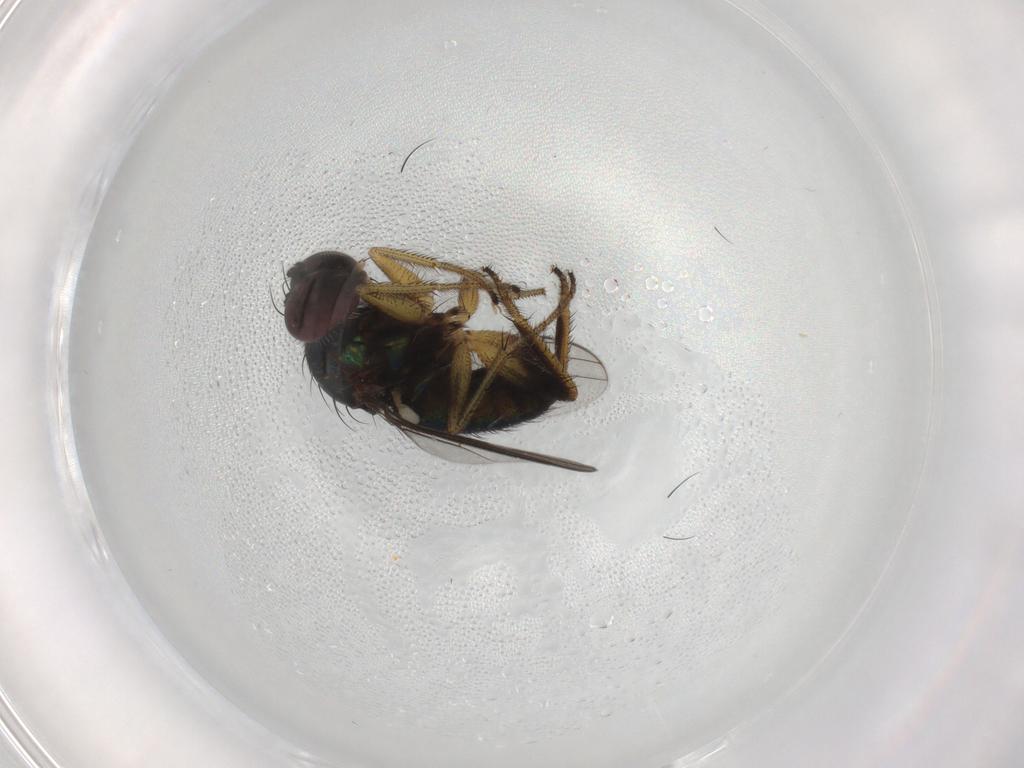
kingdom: Animalia
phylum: Arthropoda
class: Insecta
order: Diptera
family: Dolichopodidae
